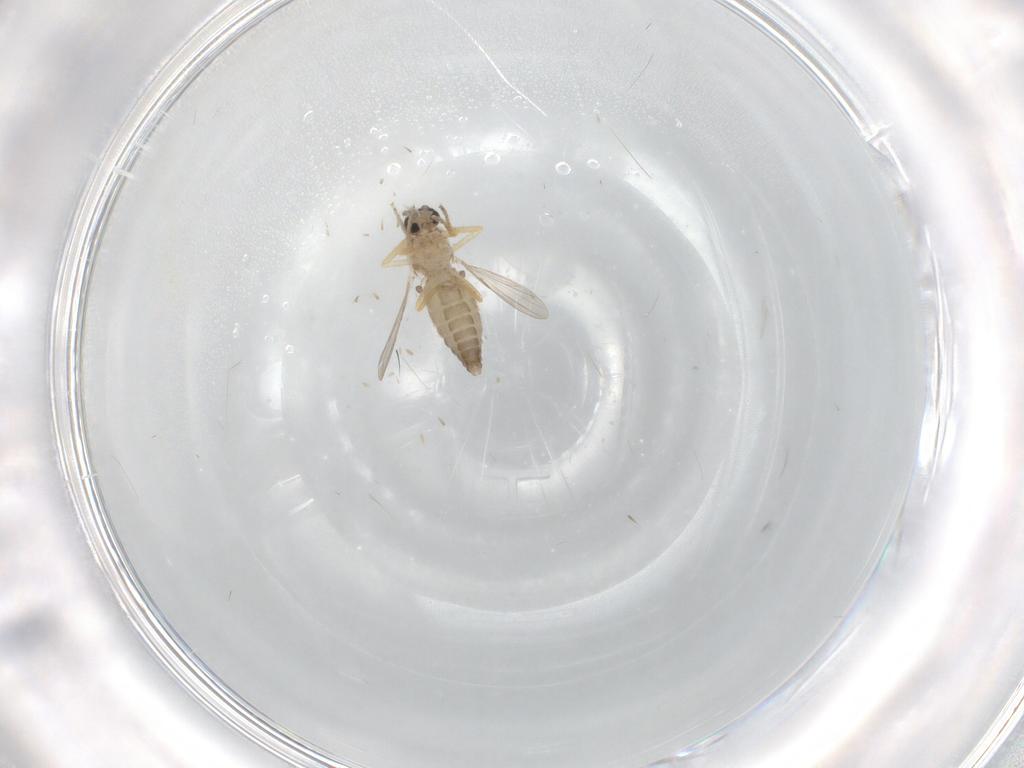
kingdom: Animalia
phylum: Arthropoda
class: Insecta
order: Diptera
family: Ceratopogonidae
